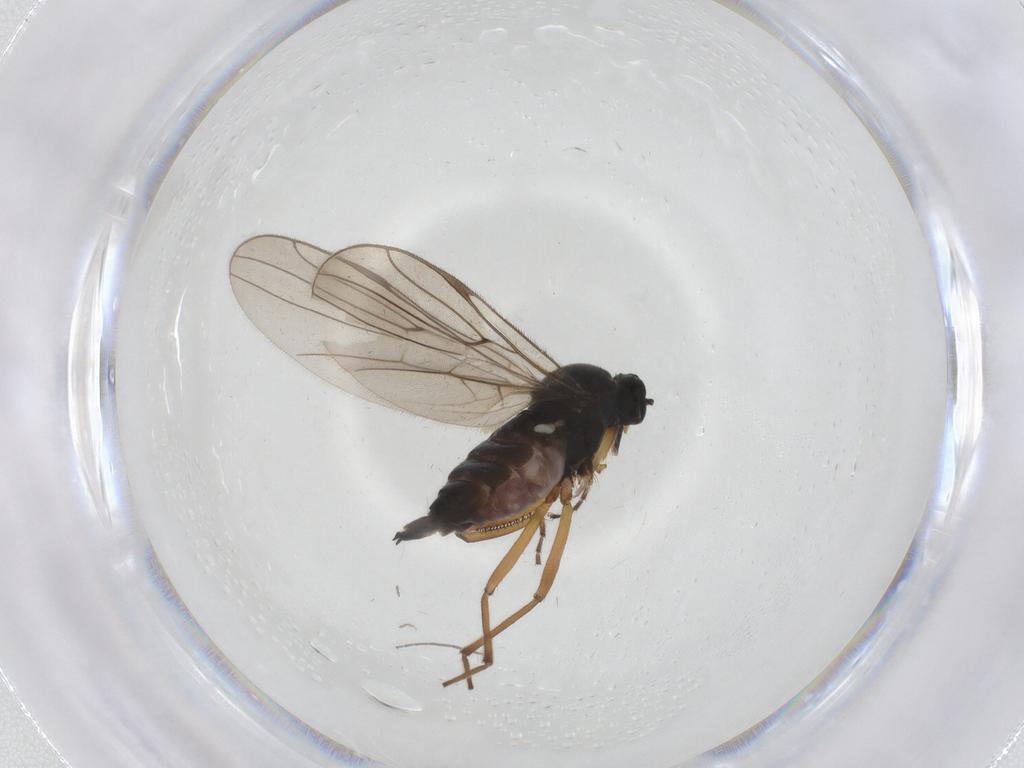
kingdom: Animalia
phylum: Arthropoda
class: Insecta
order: Diptera
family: Hybotidae
